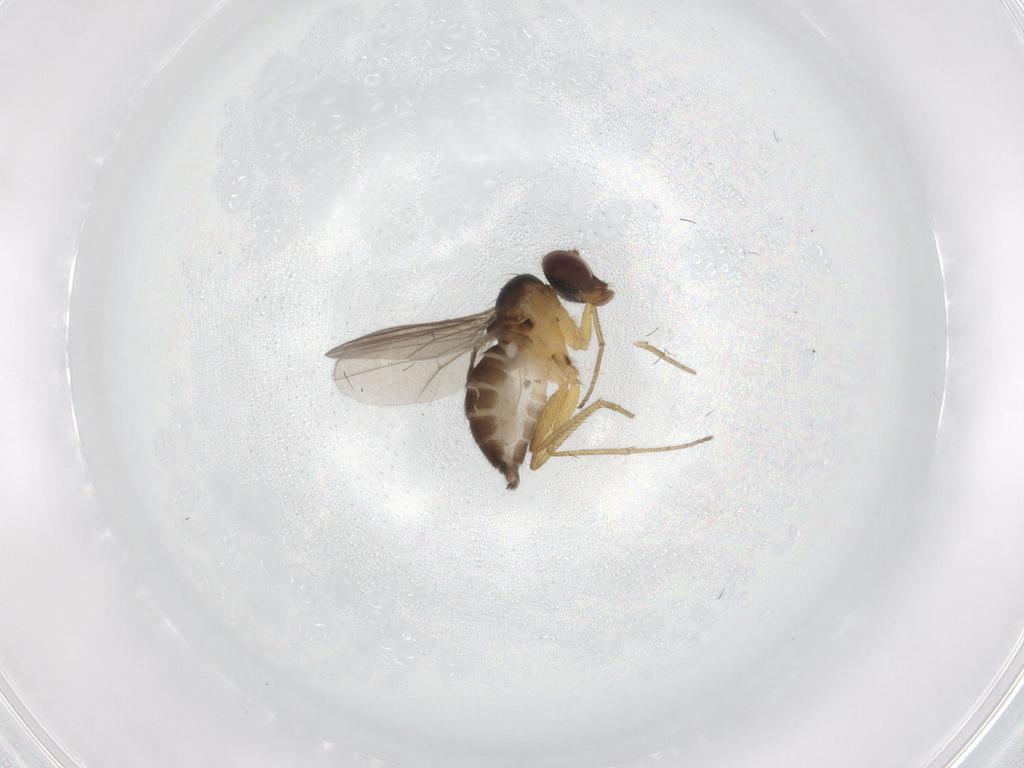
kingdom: Animalia
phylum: Arthropoda
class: Insecta
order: Diptera
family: Dolichopodidae
